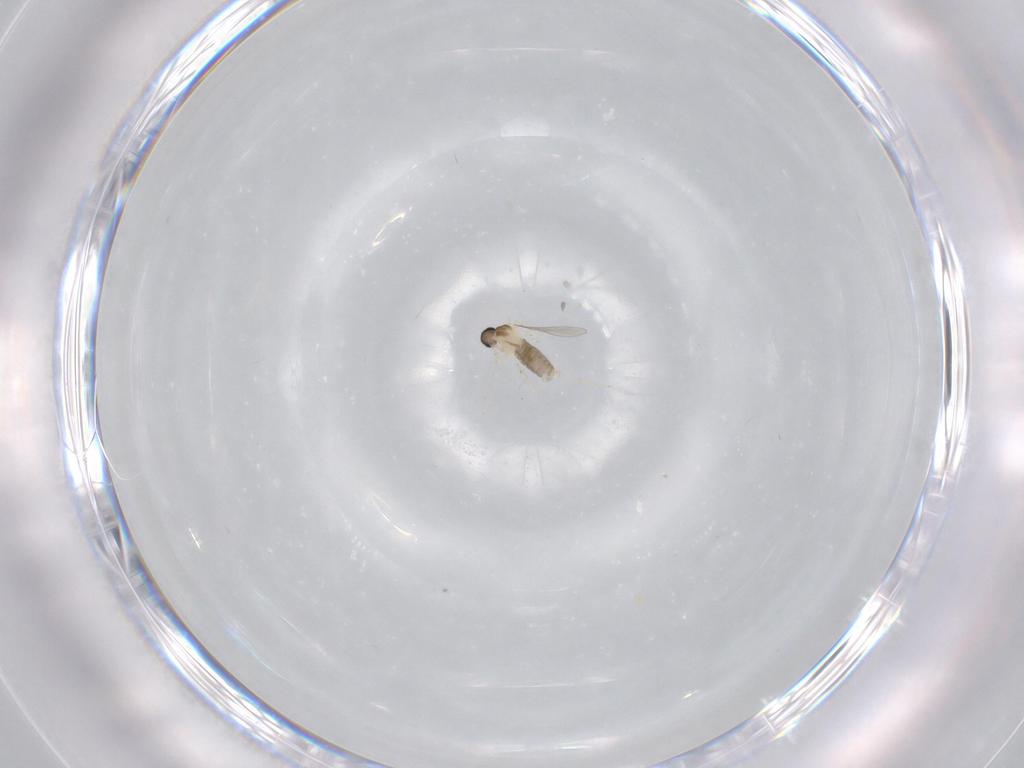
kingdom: Animalia
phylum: Arthropoda
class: Insecta
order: Diptera
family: Cecidomyiidae
